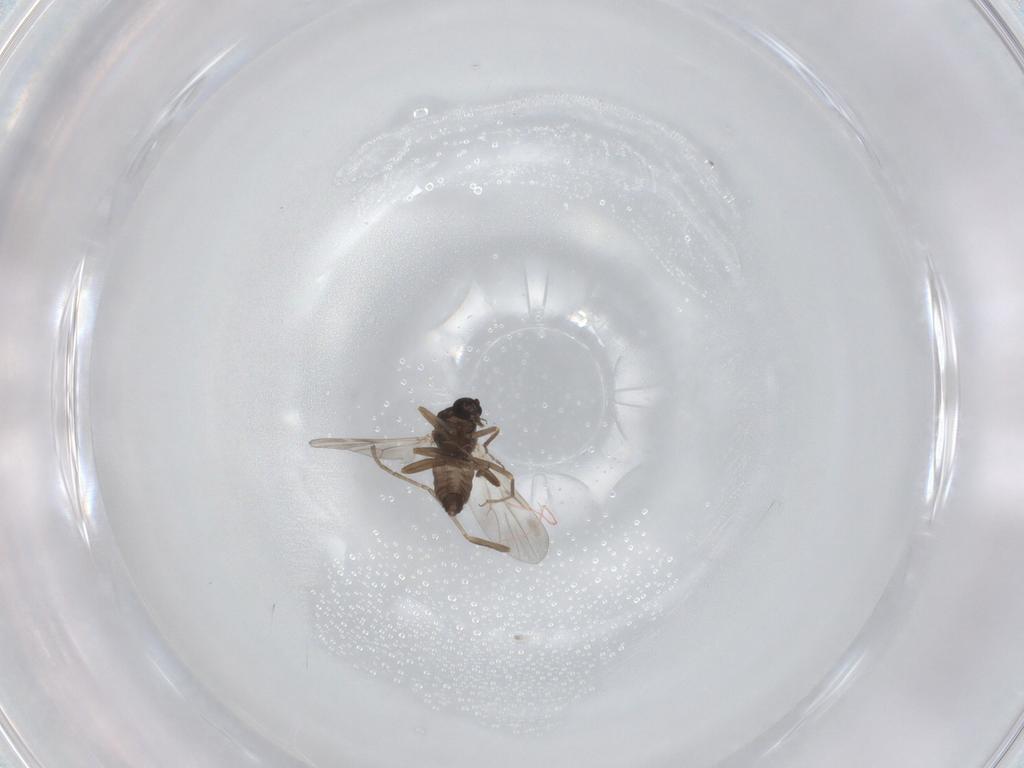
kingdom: Animalia
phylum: Arthropoda
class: Insecta
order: Diptera
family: Ceratopogonidae
